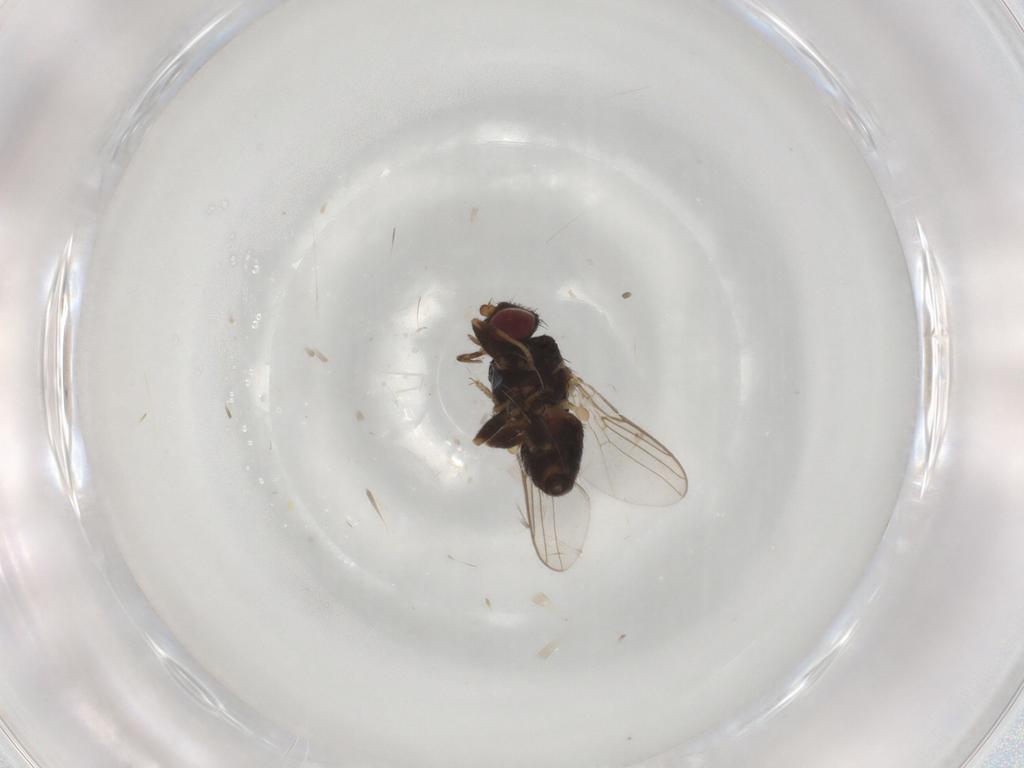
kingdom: Animalia
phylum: Arthropoda
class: Insecta
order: Diptera
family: Chloropidae
